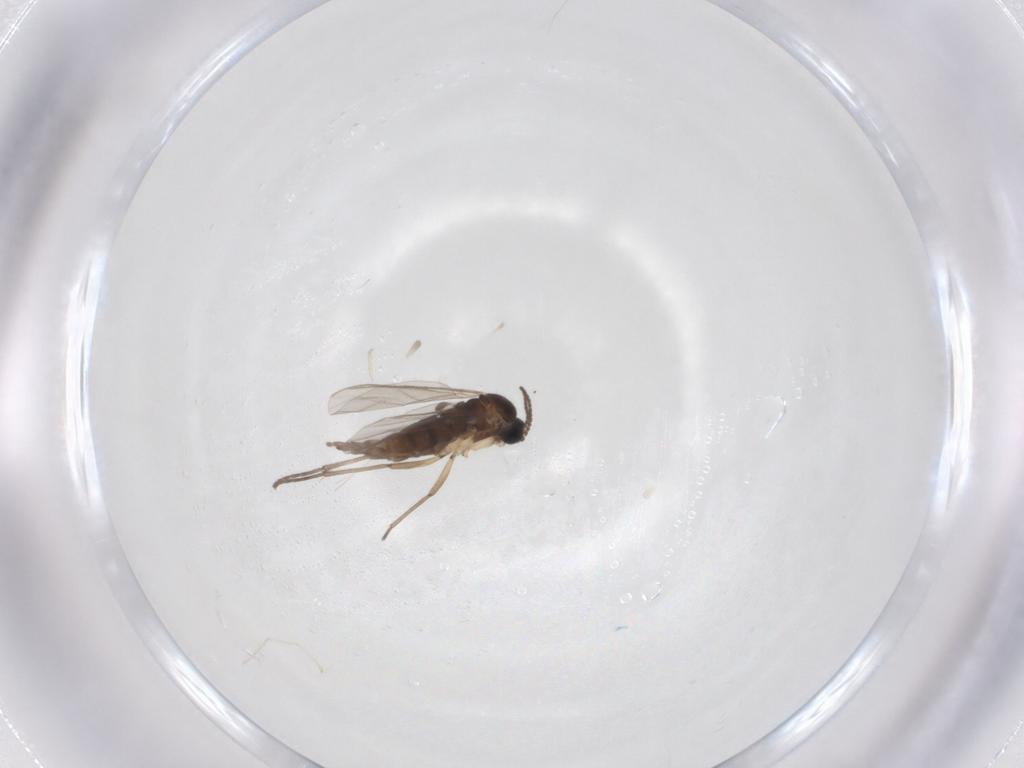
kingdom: Animalia
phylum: Arthropoda
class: Insecta
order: Diptera
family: Cecidomyiidae
